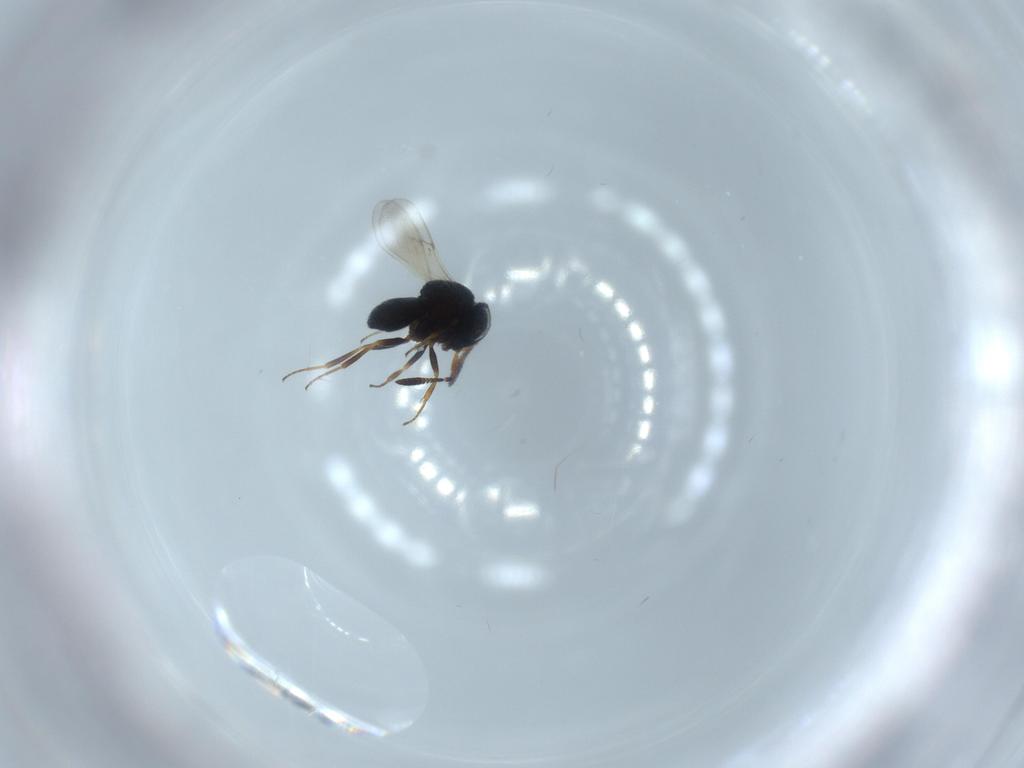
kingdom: Animalia
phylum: Arthropoda
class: Insecta
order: Hymenoptera
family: Scelionidae
